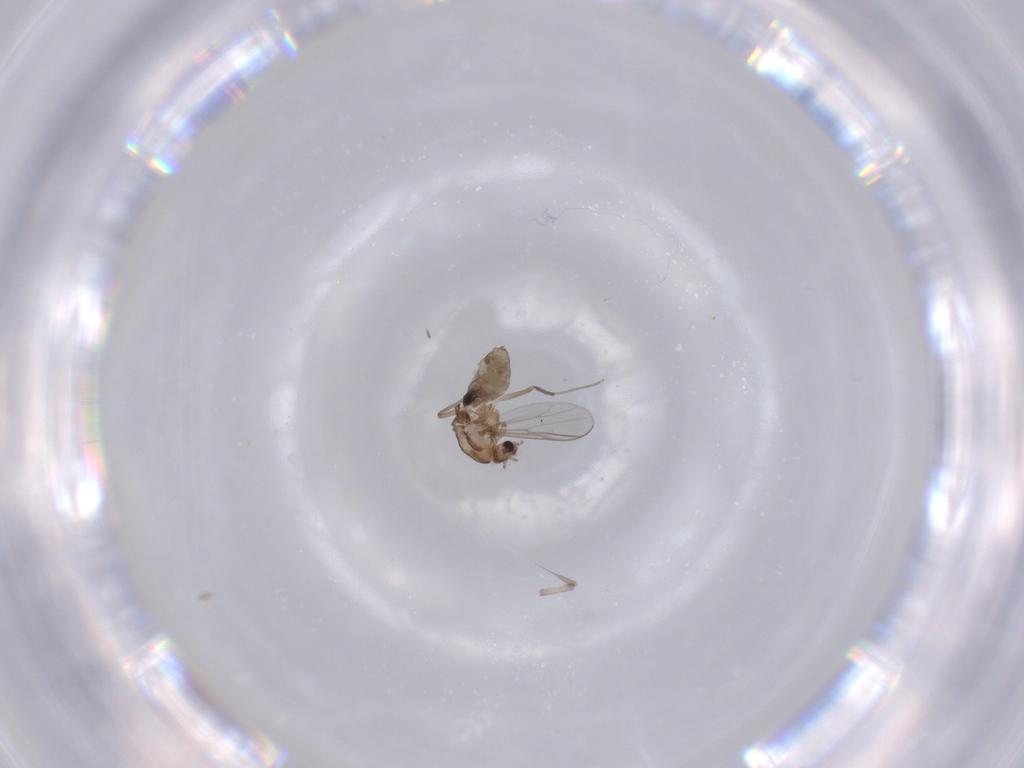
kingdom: Animalia
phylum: Arthropoda
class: Insecta
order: Diptera
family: Chironomidae
